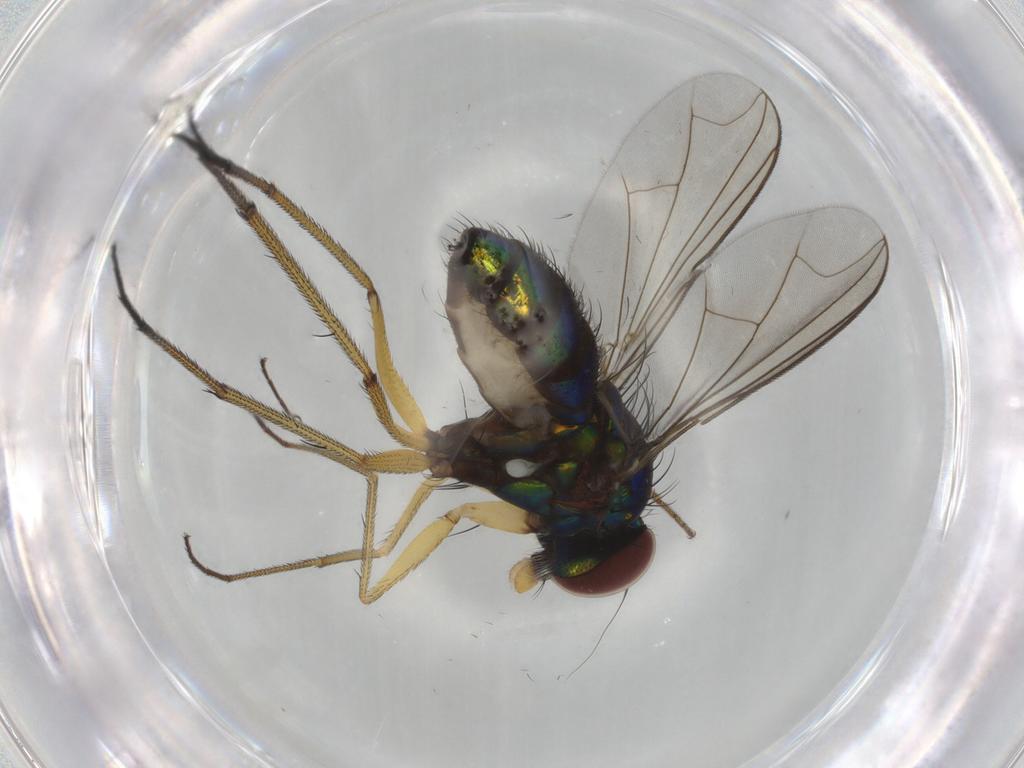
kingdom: Animalia
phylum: Arthropoda
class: Insecta
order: Diptera
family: Dolichopodidae
